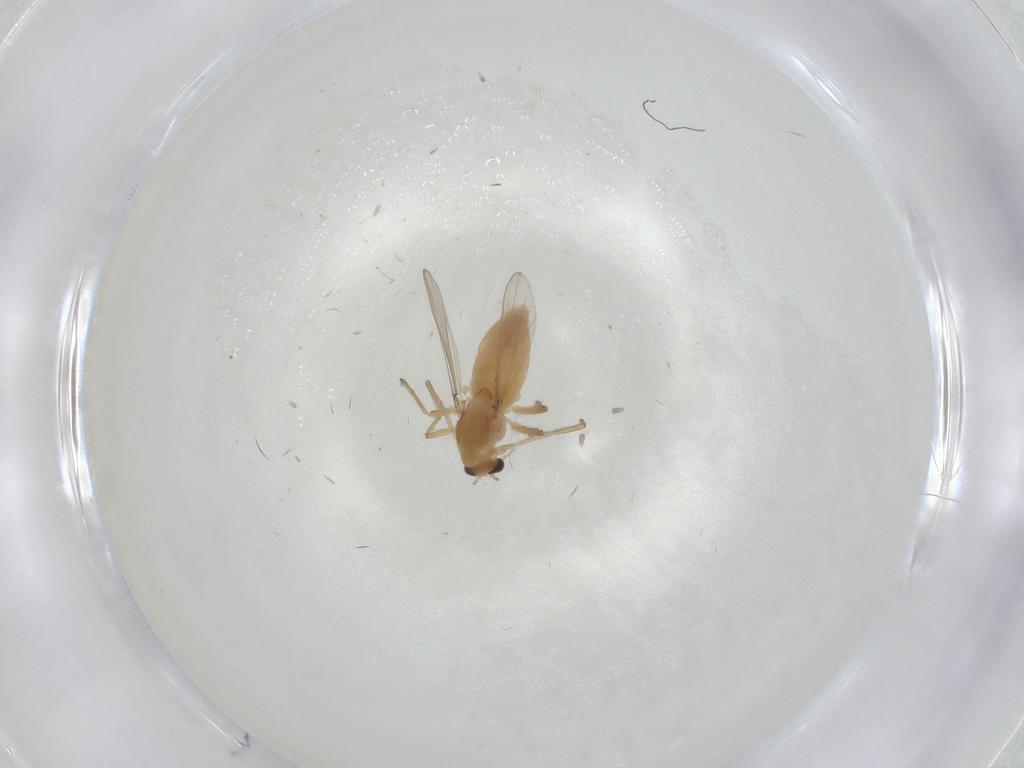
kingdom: Animalia
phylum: Arthropoda
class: Insecta
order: Diptera
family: Chironomidae
